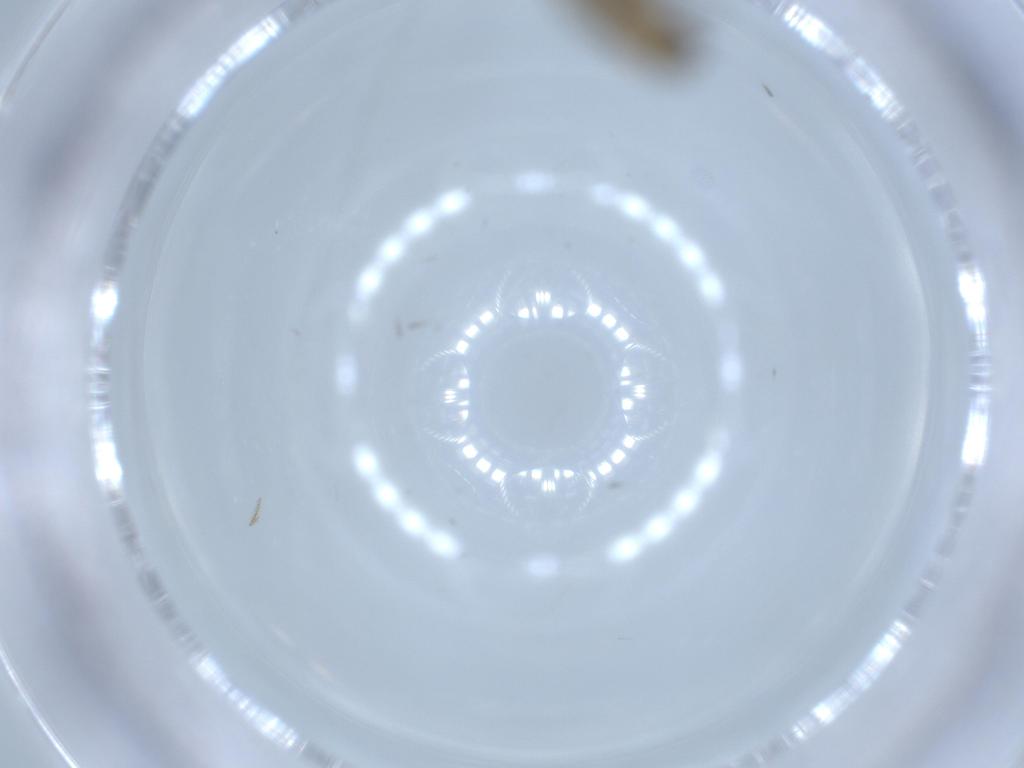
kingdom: Animalia
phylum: Arthropoda
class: Insecta
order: Diptera
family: Phoridae
